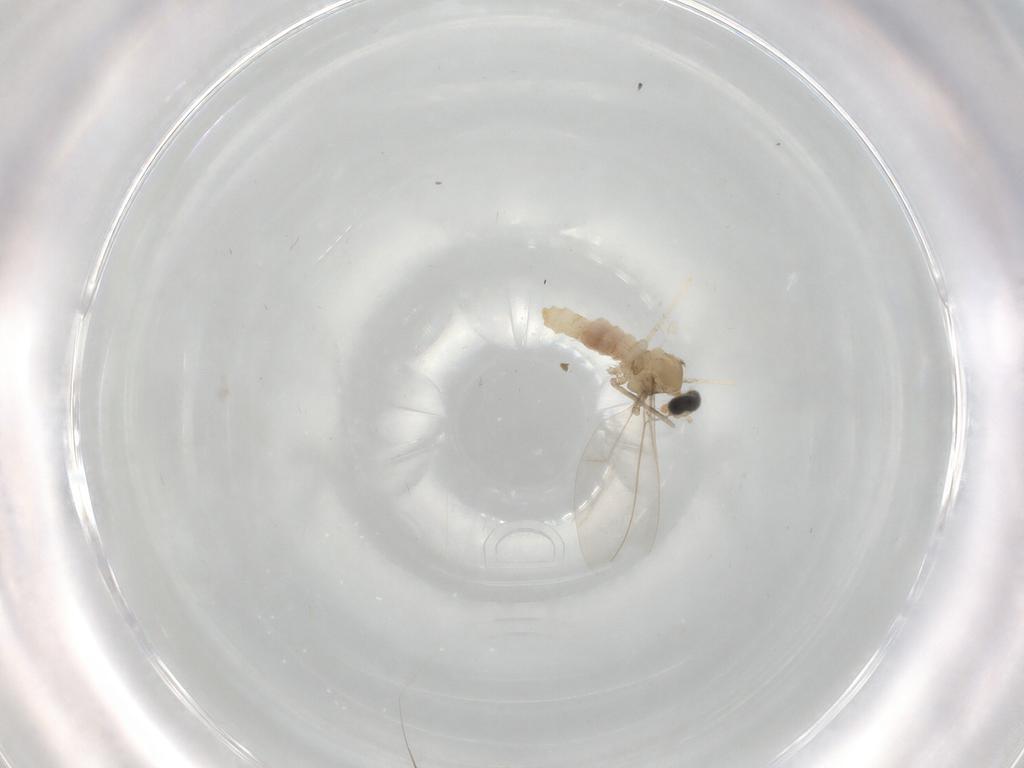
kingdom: Animalia
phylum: Arthropoda
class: Insecta
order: Diptera
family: Cecidomyiidae
